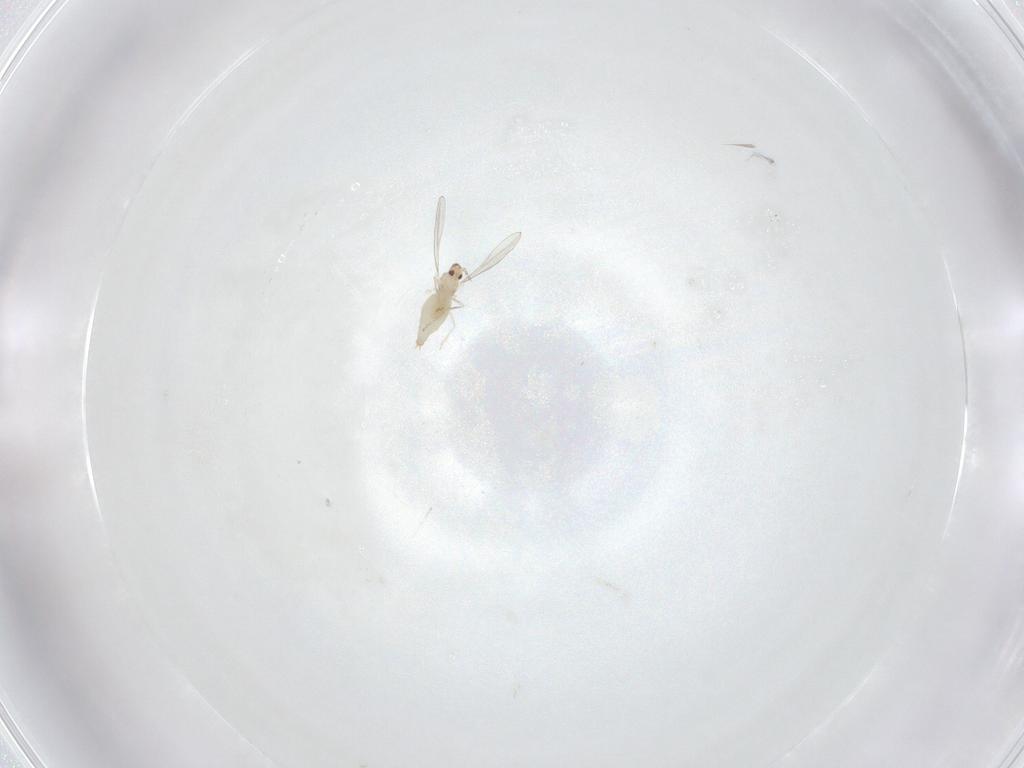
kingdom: Animalia
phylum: Arthropoda
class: Insecta
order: Diptera
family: Cecidomyiidae
